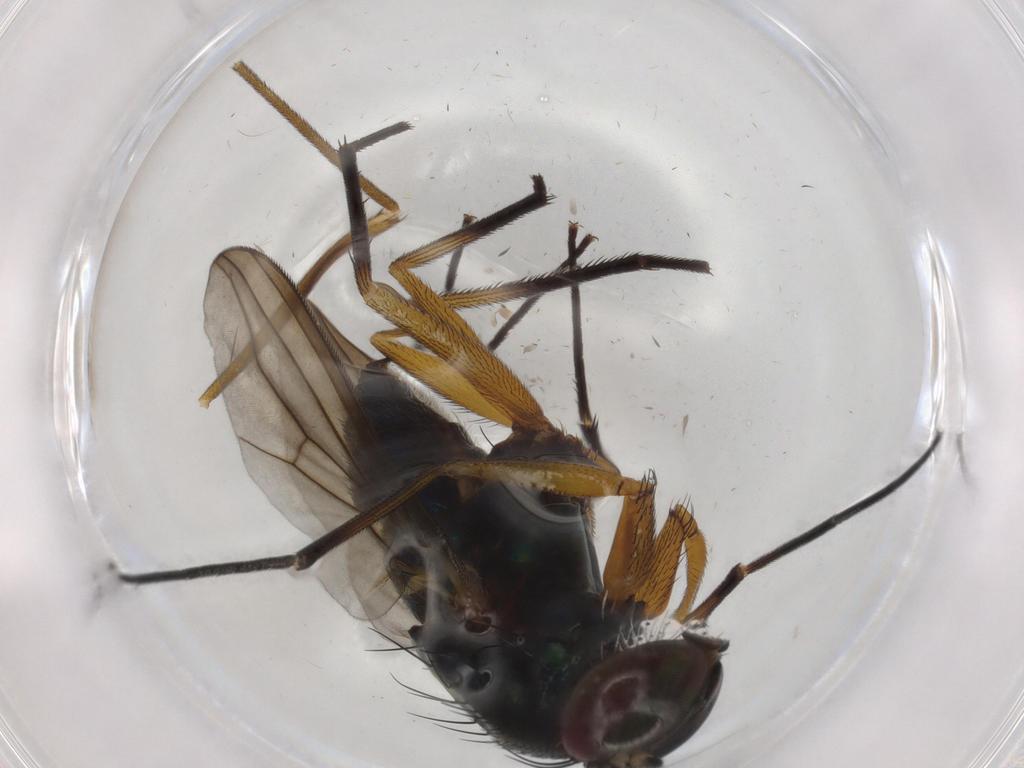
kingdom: Animalia
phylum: Arthropoda
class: Insecta
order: Diptera
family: Dolichopodidae
